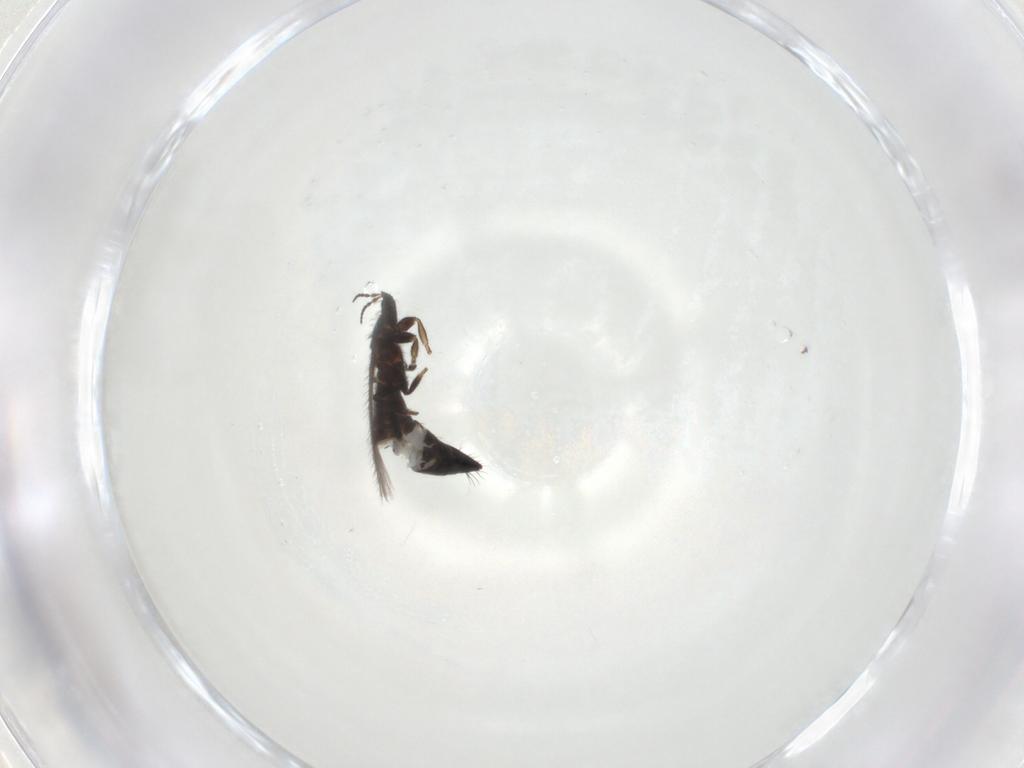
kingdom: Animalia
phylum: Arthropoda
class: Insecta
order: Thysanoptera
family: Melanthripidae
